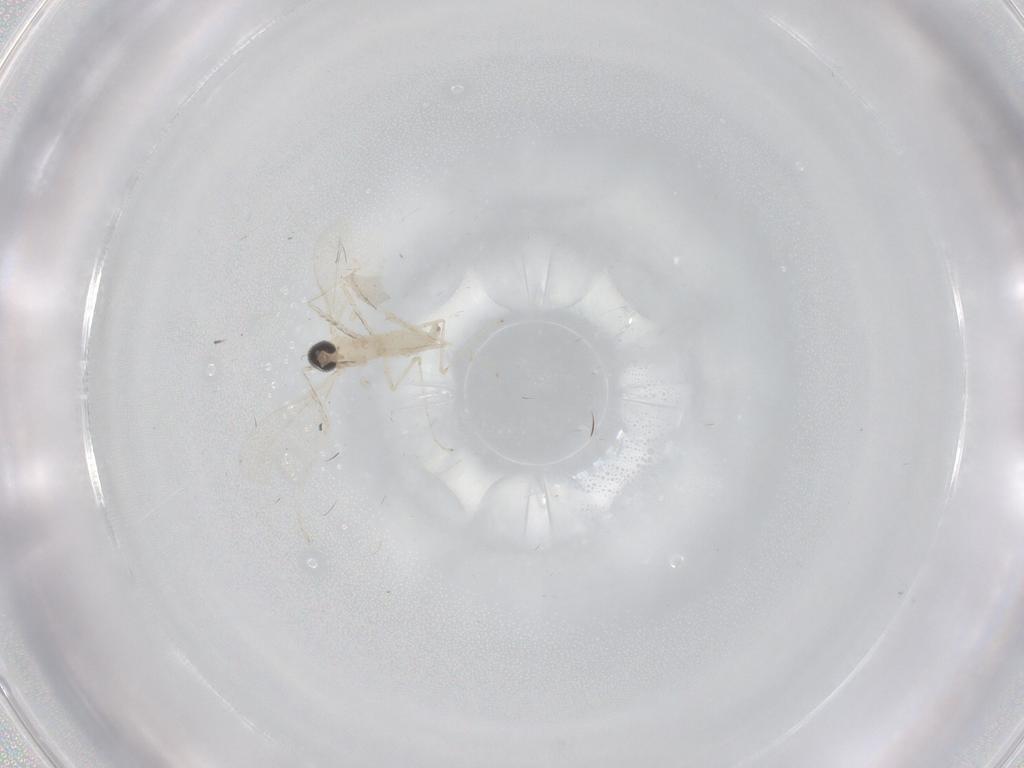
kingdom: Animalia
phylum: Arthropoda
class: Insecta
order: Diptera
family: Cecidomyiidae
